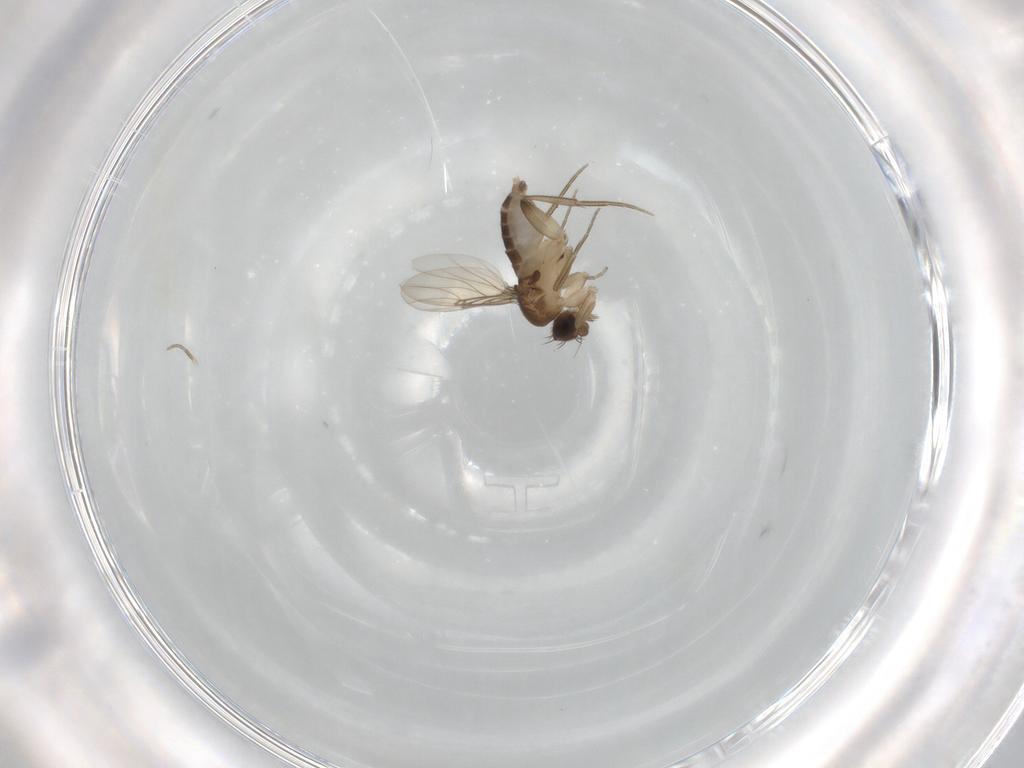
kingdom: Animalia
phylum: Arthropoda
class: Insecta
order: Diptera
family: Phoridae
